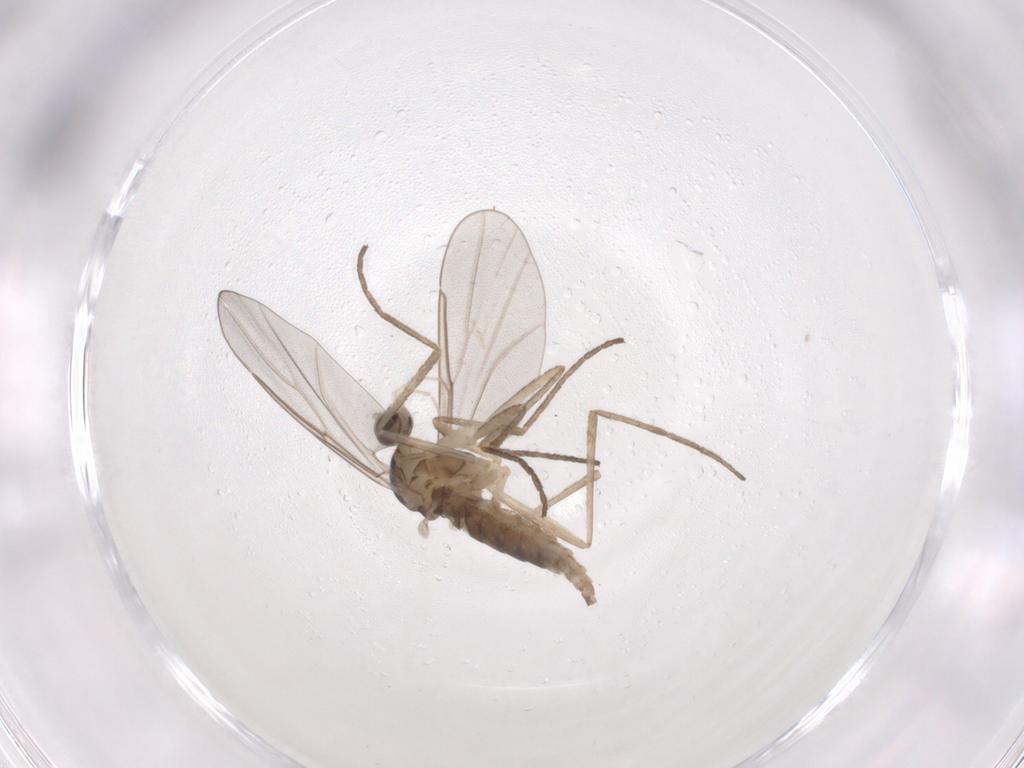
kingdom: Animalia
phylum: Arthropoda
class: Insecta
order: Diptera
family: Cecidomyiidae
